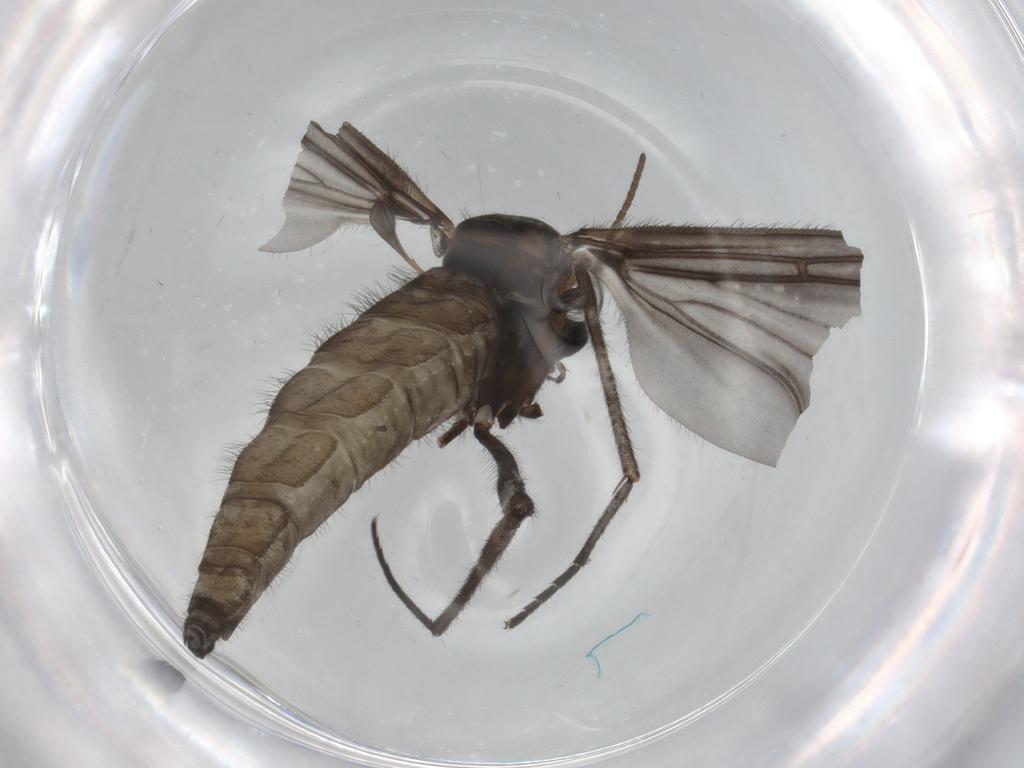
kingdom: Animalia
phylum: Arthropoda
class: Insecta
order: Diptera
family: Sciaridae
